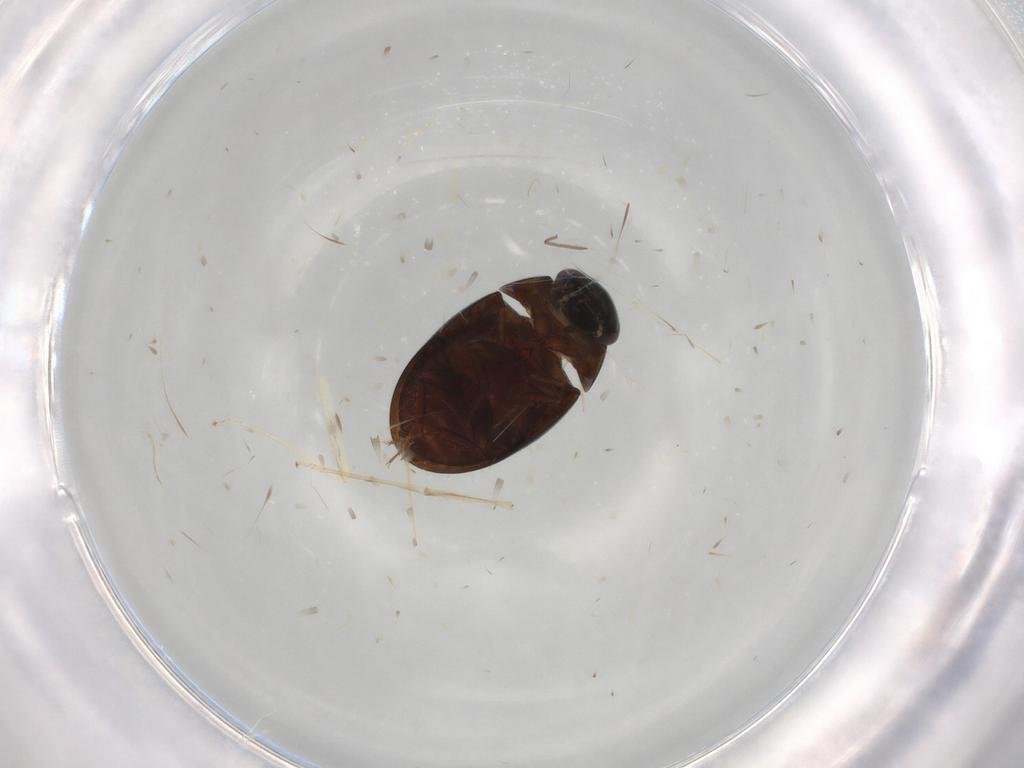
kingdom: Animalia
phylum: Arthropoda
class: Insecta
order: Coleoptera
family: Hydrophilidae
